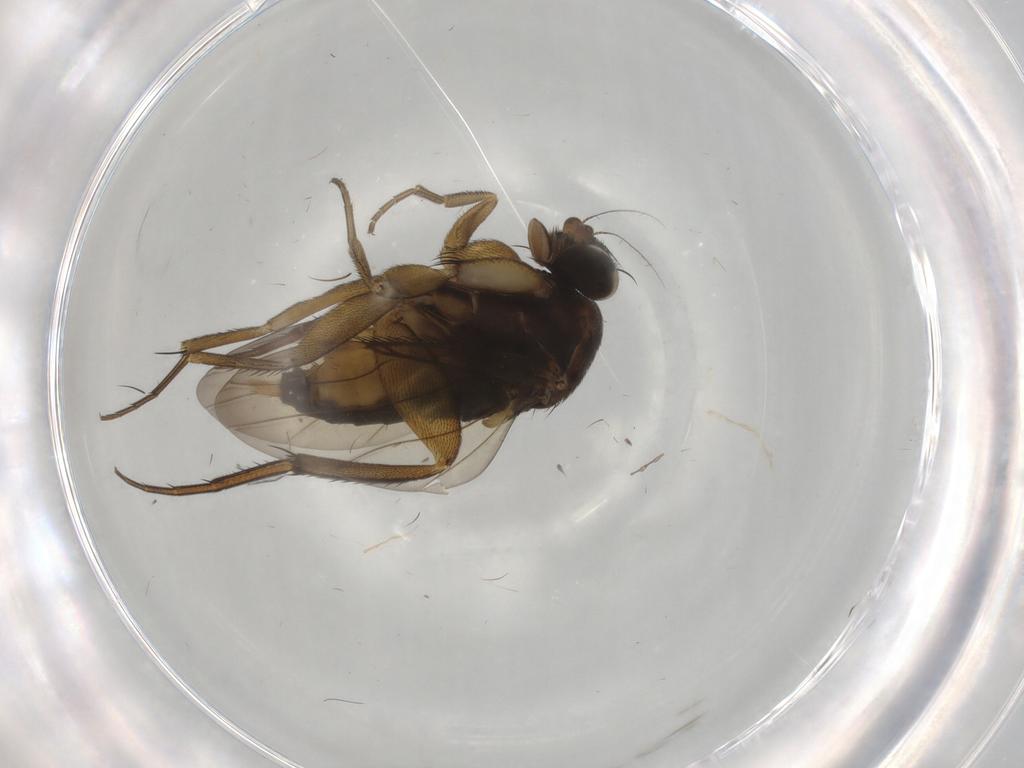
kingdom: Animalia
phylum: Arthropoda
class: Insecta
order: Diptera
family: Phoridae
